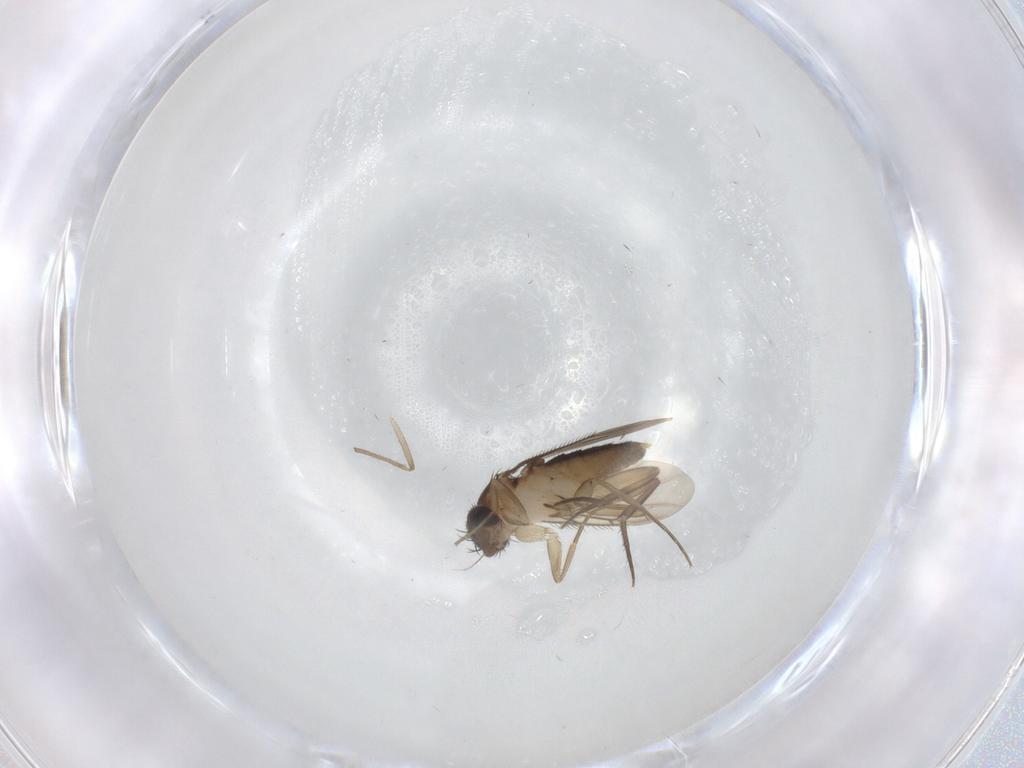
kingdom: Animalia
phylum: Arthropoda
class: Insecta
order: Diptera
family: Phoridae
